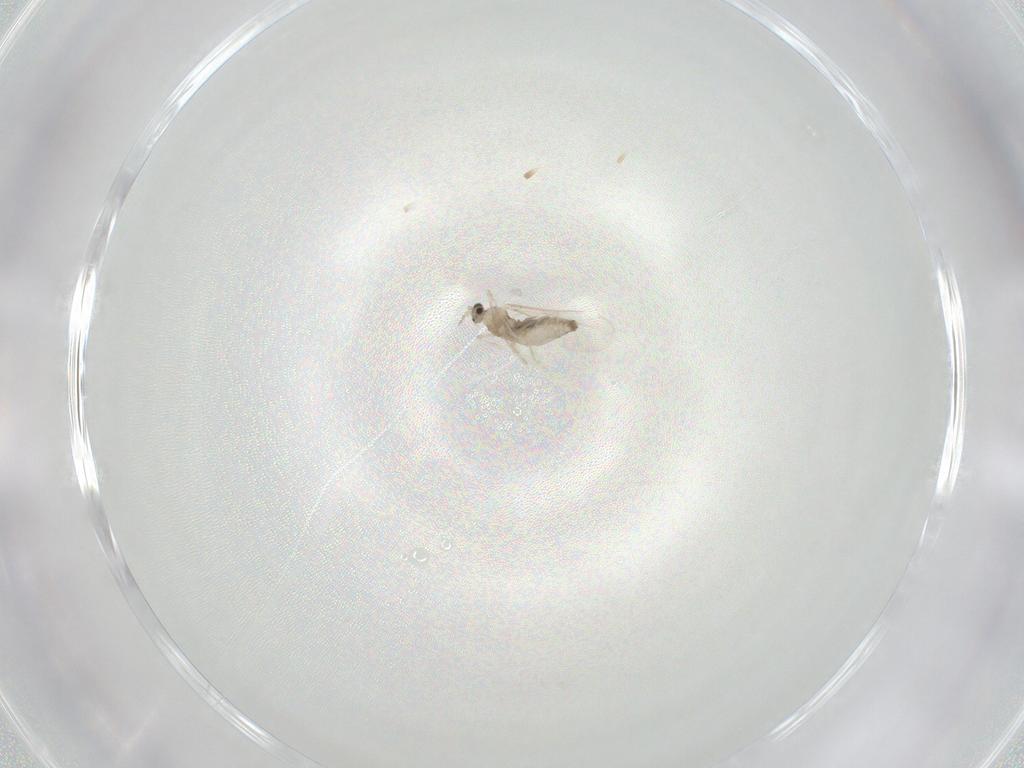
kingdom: Animalia
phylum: Arthropoda
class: Insecta
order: Diptera
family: Cecidomyiidae
